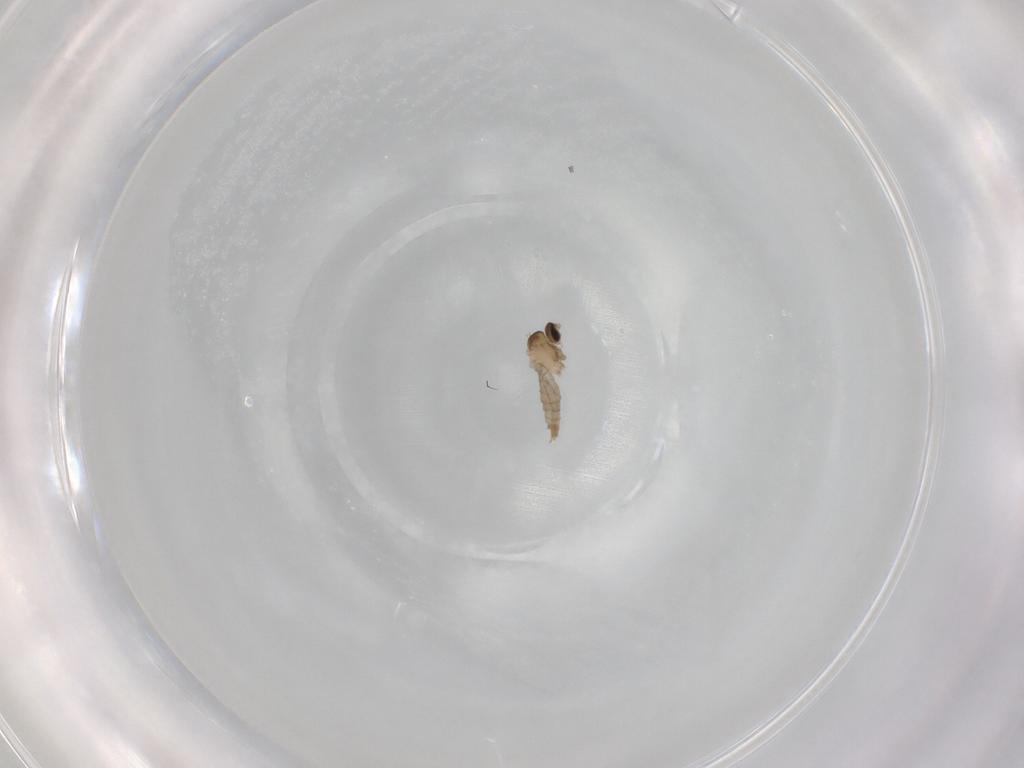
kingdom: Animalia
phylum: Arthropoda
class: Insecta
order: Diptera
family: Cecidomyiidae
